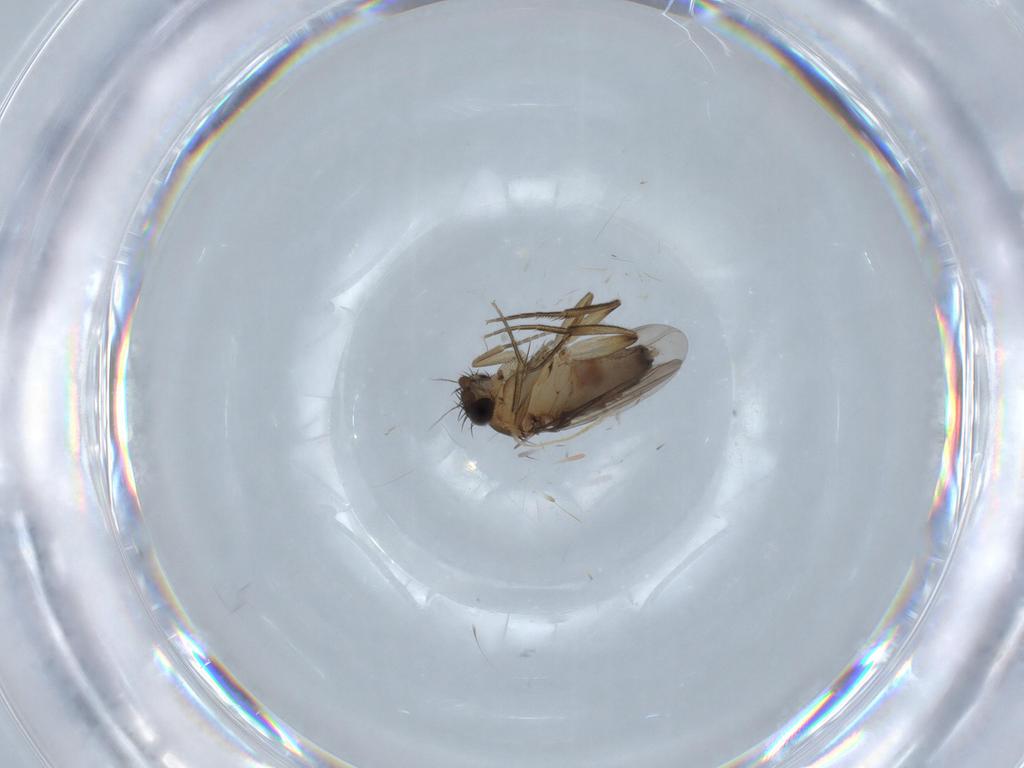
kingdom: Animalia
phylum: Arthropoda
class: Insecta
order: Diptera
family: Phoridae
